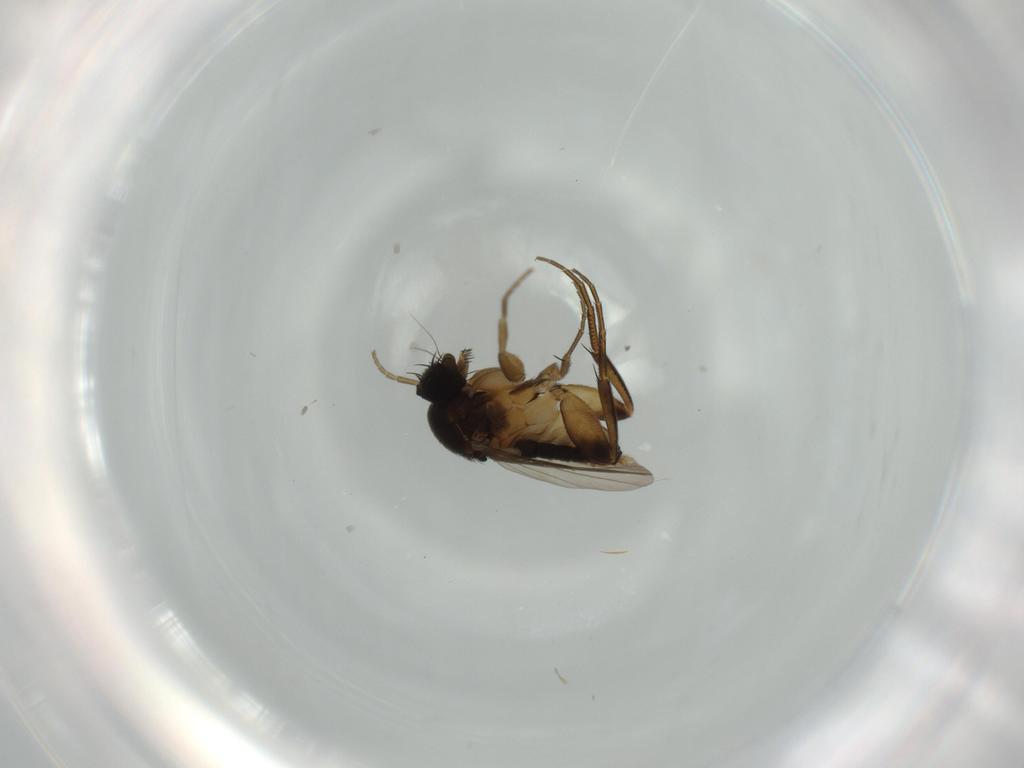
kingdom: Animalia
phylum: Arthropoda
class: Insecta
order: Diptera
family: Phoridae
